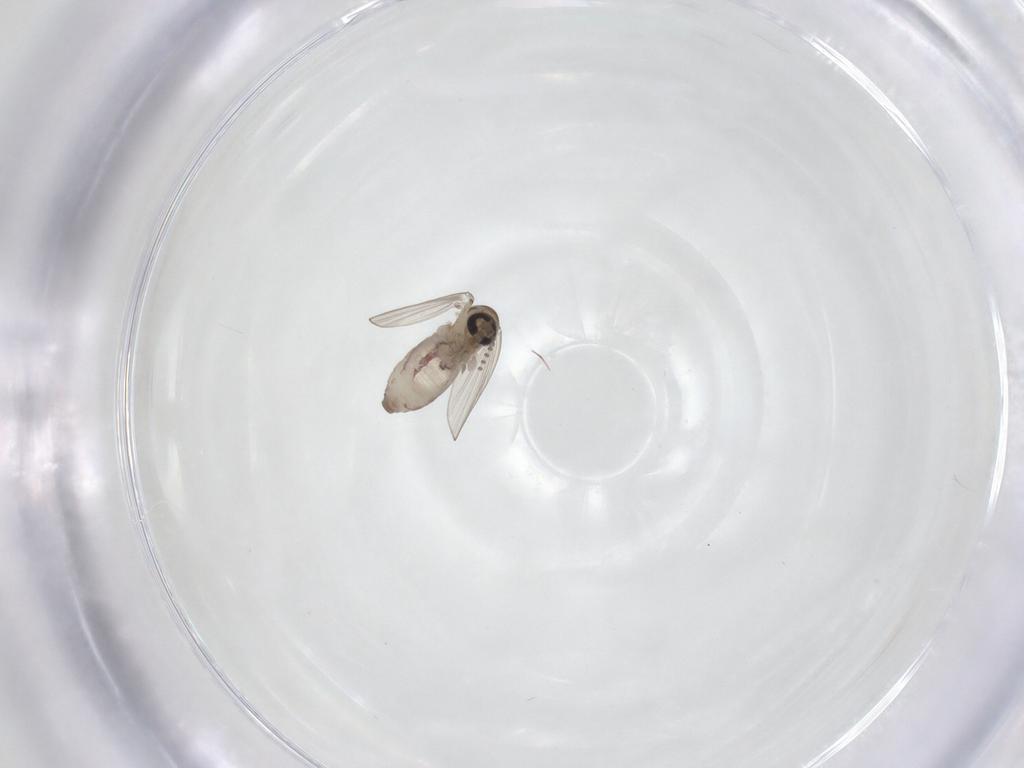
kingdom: Animalia
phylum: Arthropoda
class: Insecta
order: Diptera
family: Psychodidae
